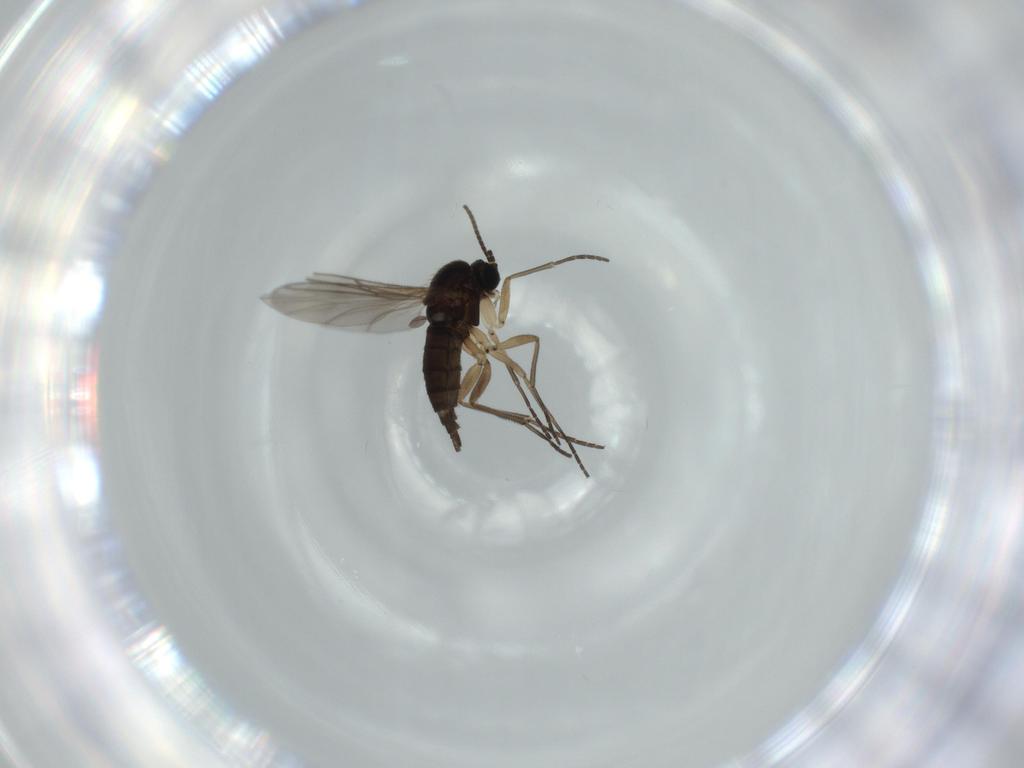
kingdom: Animalia
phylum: Arthropoda
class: Insecta
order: Diptera
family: Sciaridae
